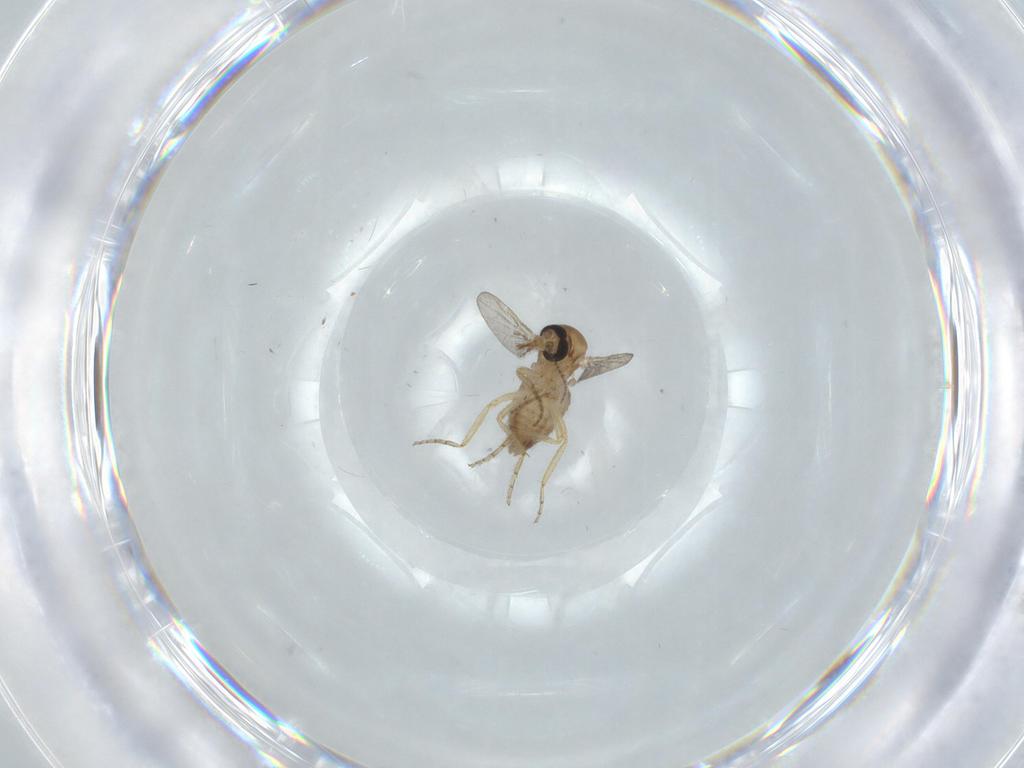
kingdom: Animalia
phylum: Arthropoda
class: Insecta
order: Diptera
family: Ceratopogonidae
